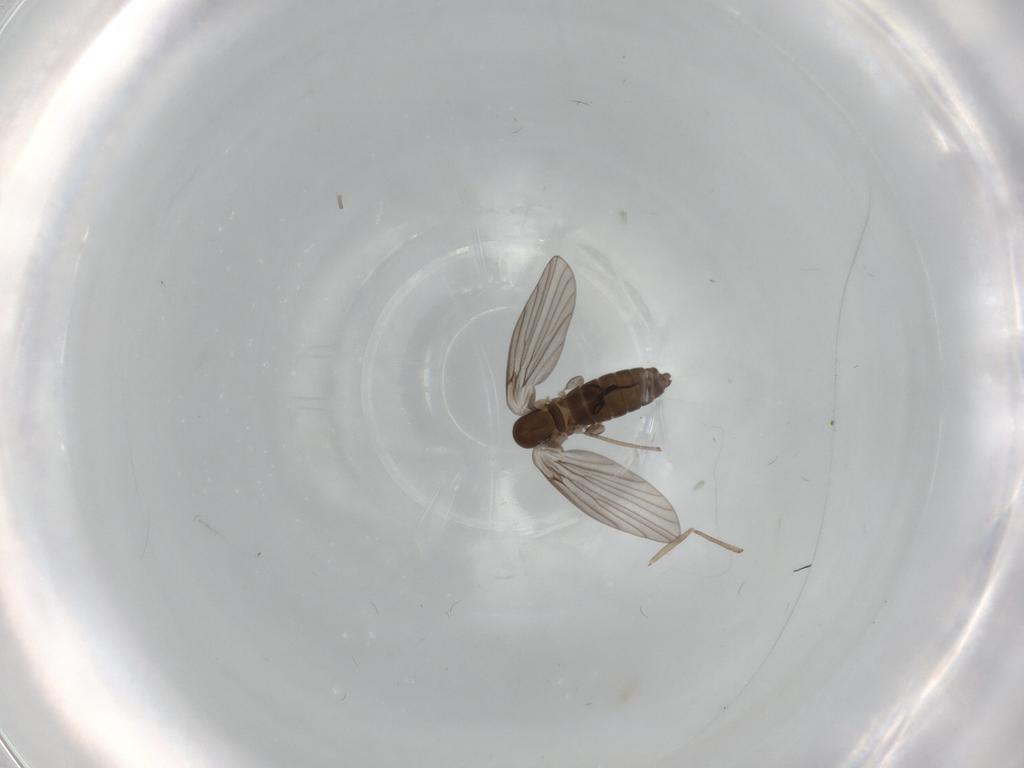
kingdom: Animalia
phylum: Arthropoda
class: Insecta
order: Diptera
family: Psychodidae
